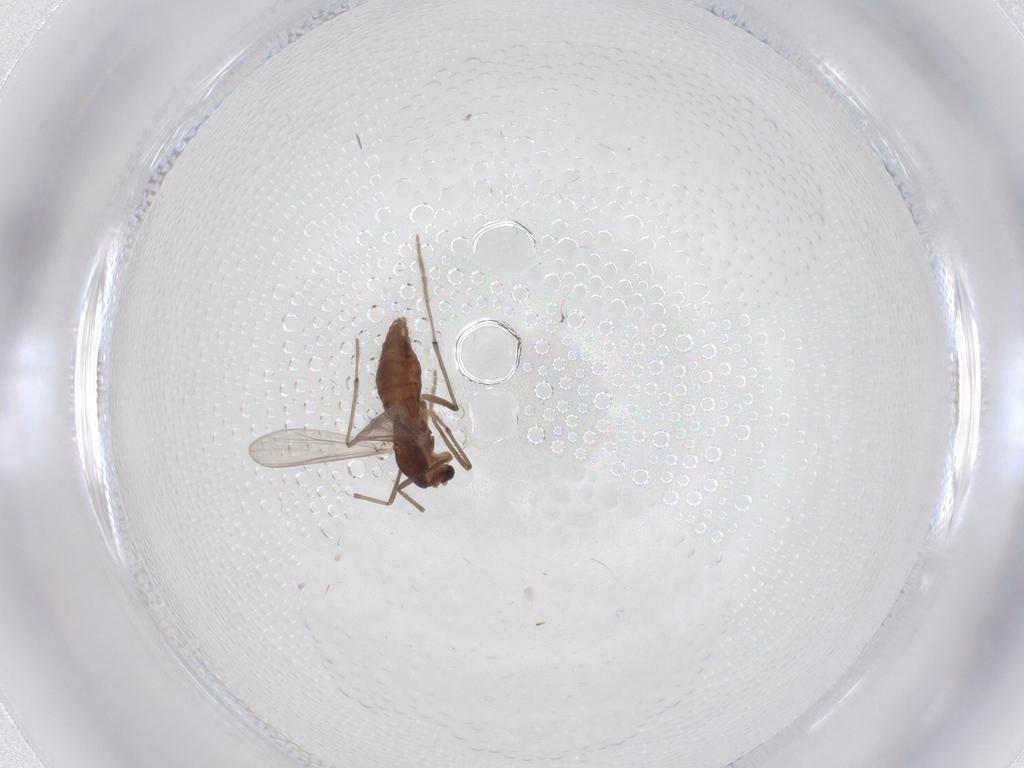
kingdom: Animalia
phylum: Arthropoda
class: Insecta
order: Diptera
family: Chironomidae
